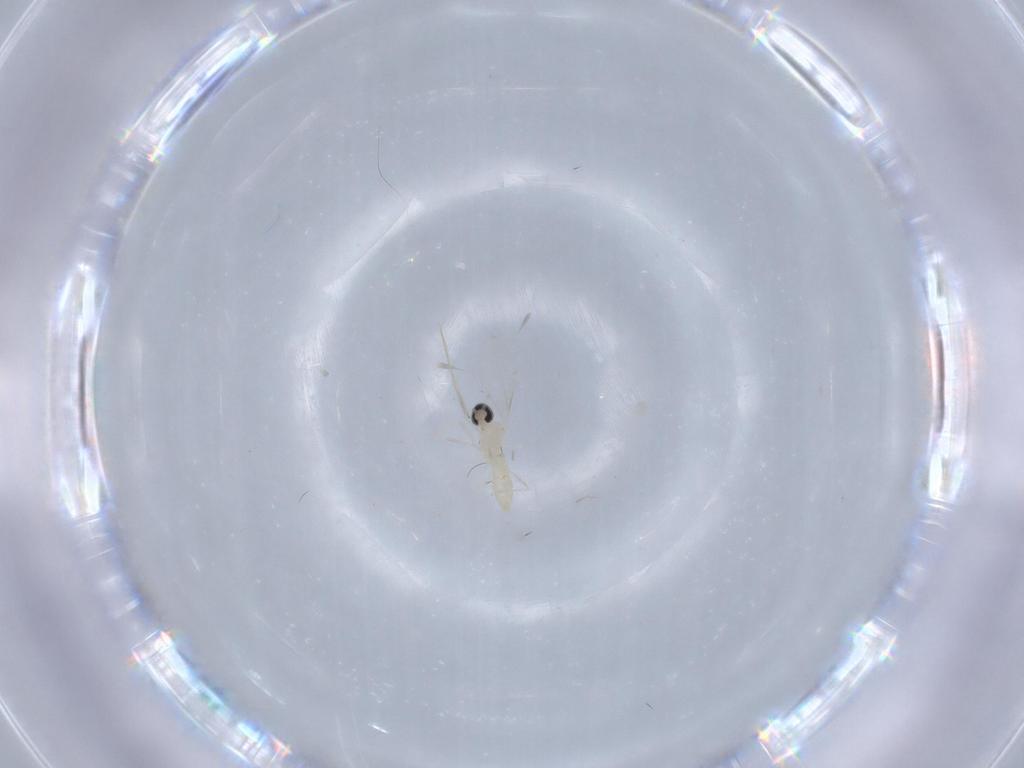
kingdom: Animalia
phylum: Arthropoda
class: Insecta
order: Diptera
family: Cecidomyiidae
